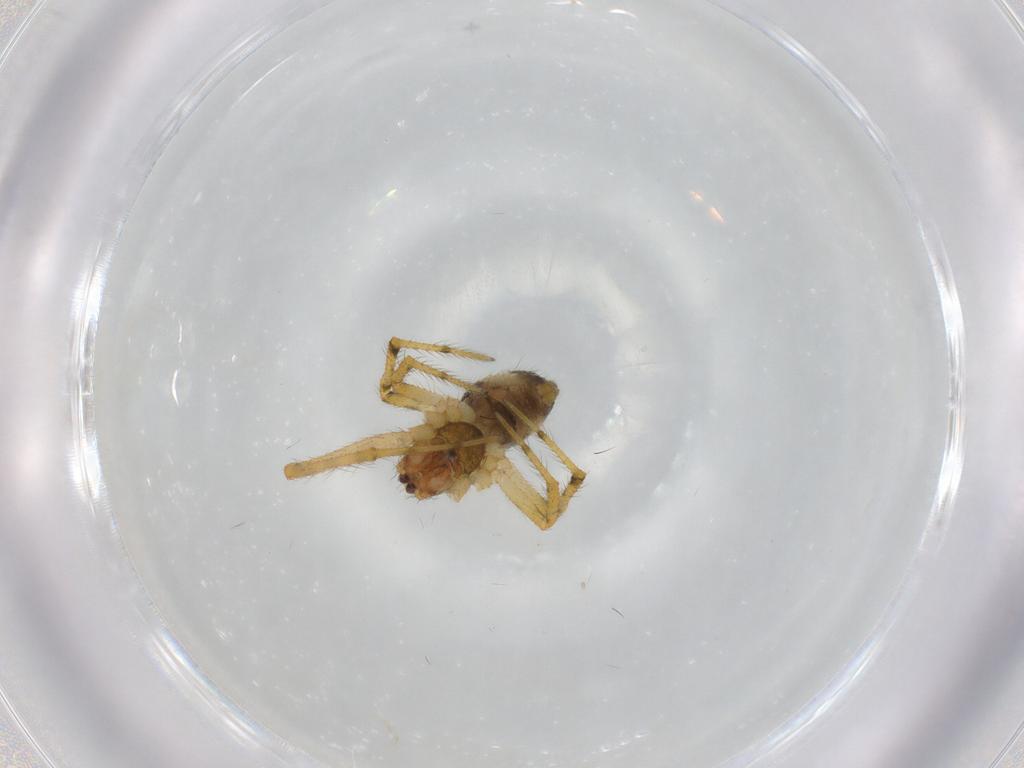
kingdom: Animalia
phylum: Arthropoda
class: Arachnida
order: Araneae
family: Theridiidae
